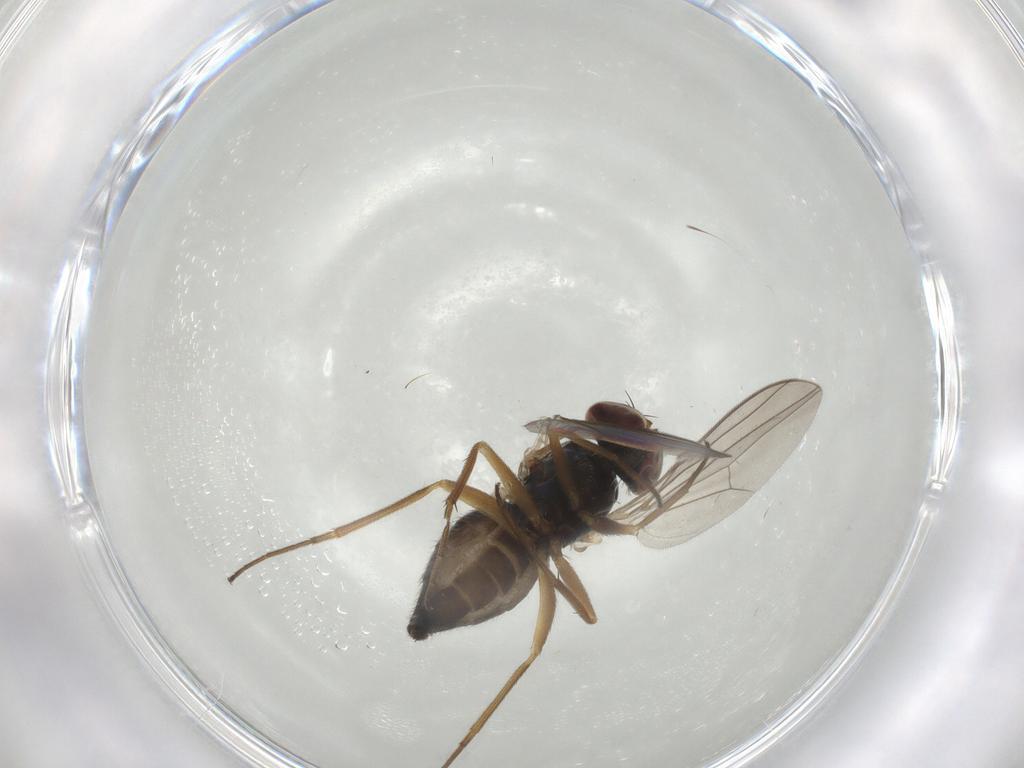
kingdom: Animalia
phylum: Arthropoda
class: Insecta
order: Diptera
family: Dolichopodidae
